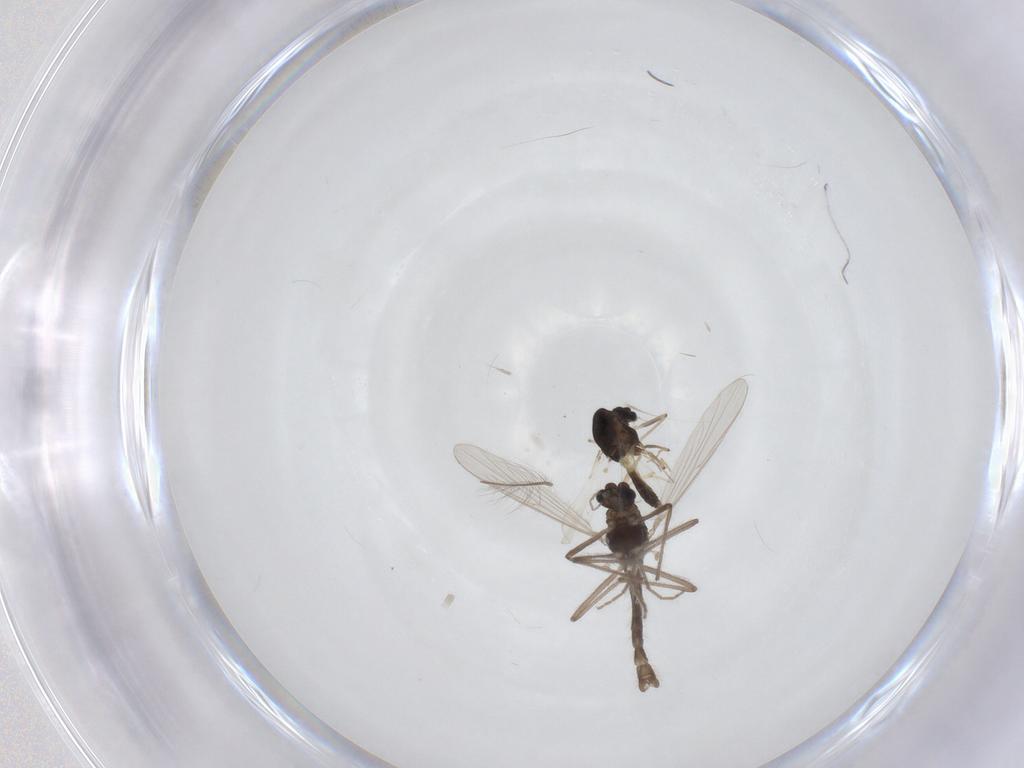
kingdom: Animalia
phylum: Arthropoda
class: Insecta
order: Diptera
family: Chironomidae
